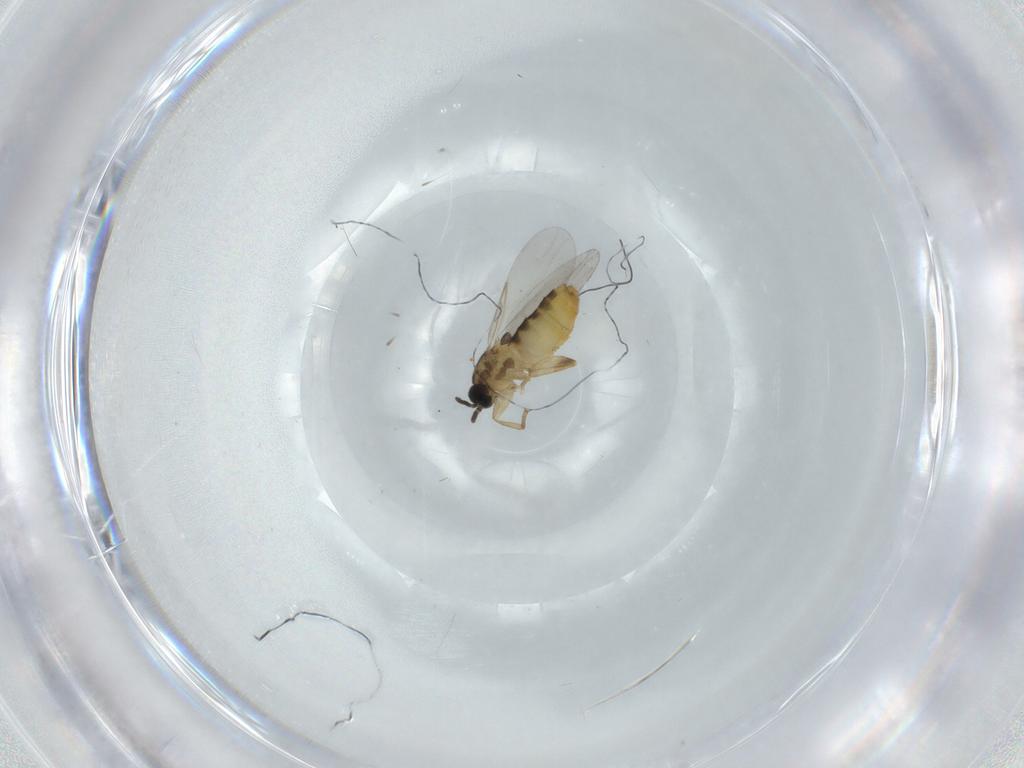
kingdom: Animalia
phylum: Arthropoda
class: Insecta
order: Diptera
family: Scatopsidae
